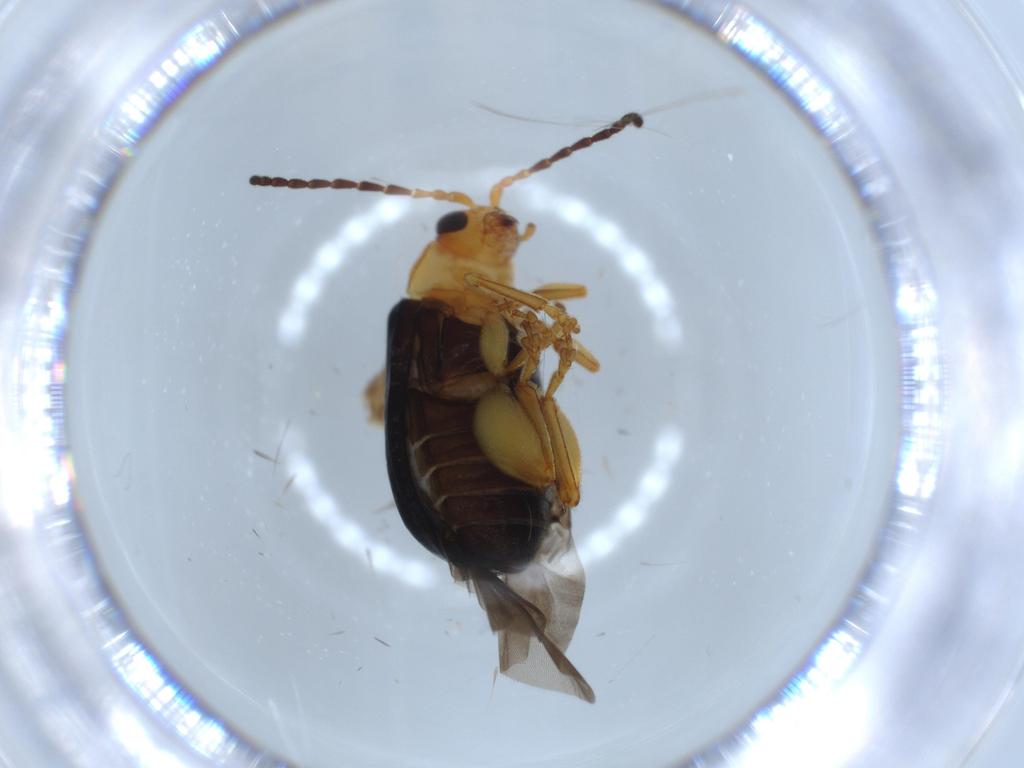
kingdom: Animalia
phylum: Arthropoda
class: Insecta
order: Coleoptera
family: Chrysomelidae
